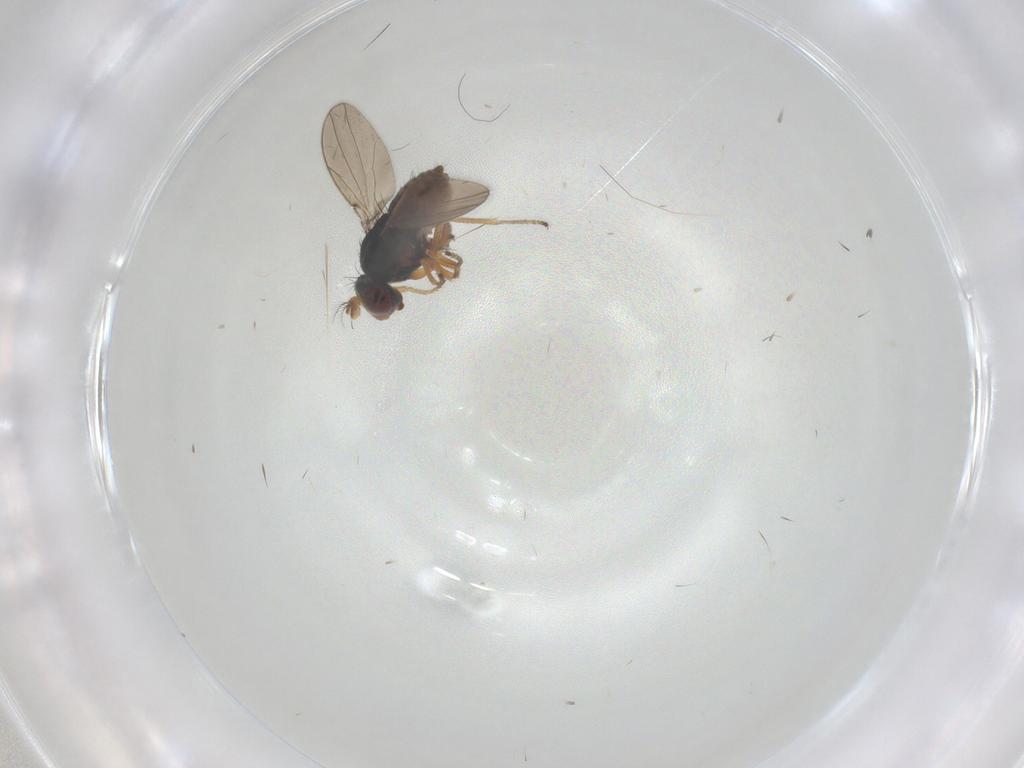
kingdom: Animalia
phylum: Arthropoda
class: Insecta
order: Diptera
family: Ephydridae
